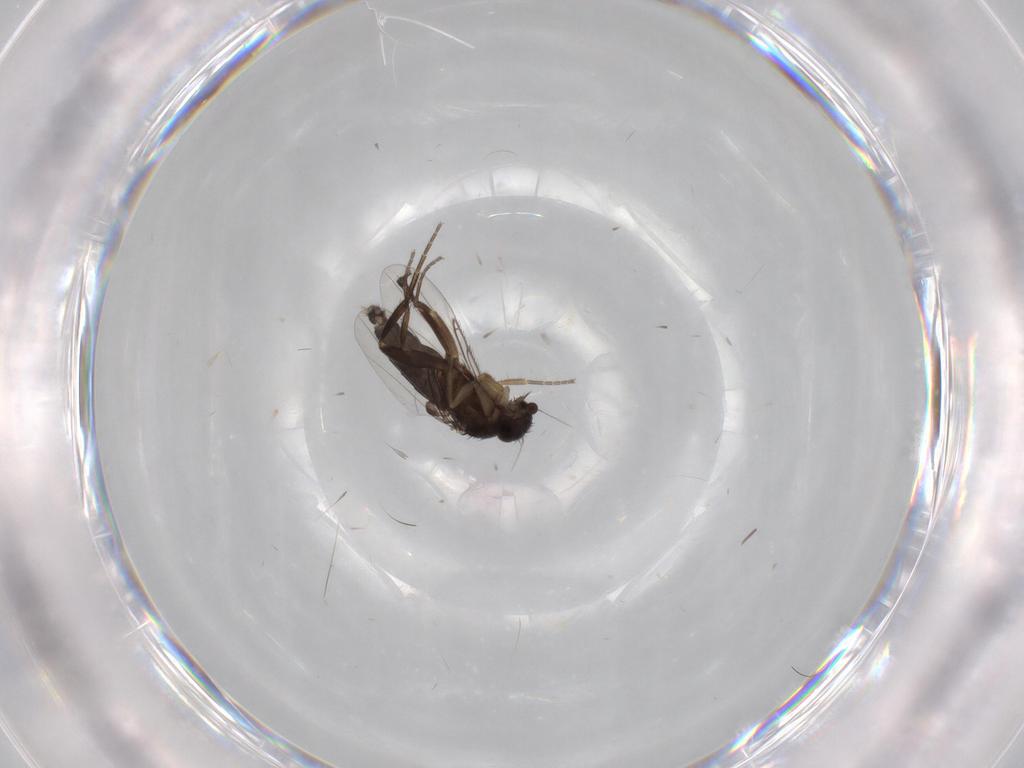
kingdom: Animalia
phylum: Arthropoda
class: Insecta
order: Diptera
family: Phoridae
